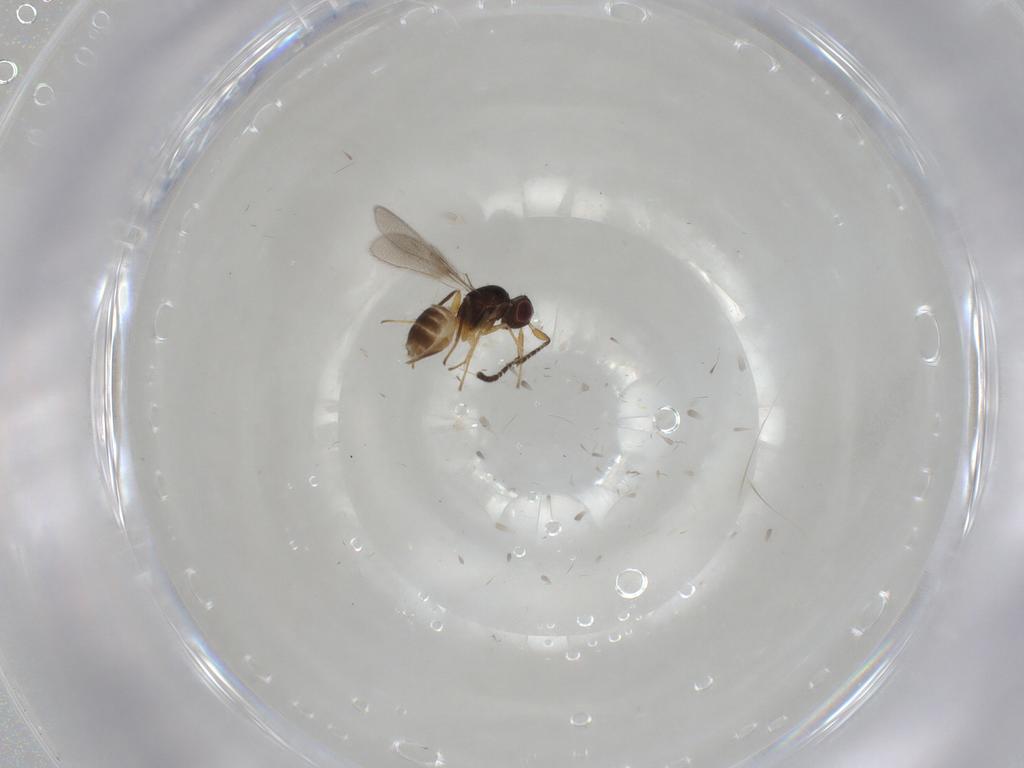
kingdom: Animalia
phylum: Arthropoda
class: Insecta
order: Hymenoptera
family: Eulophidae
